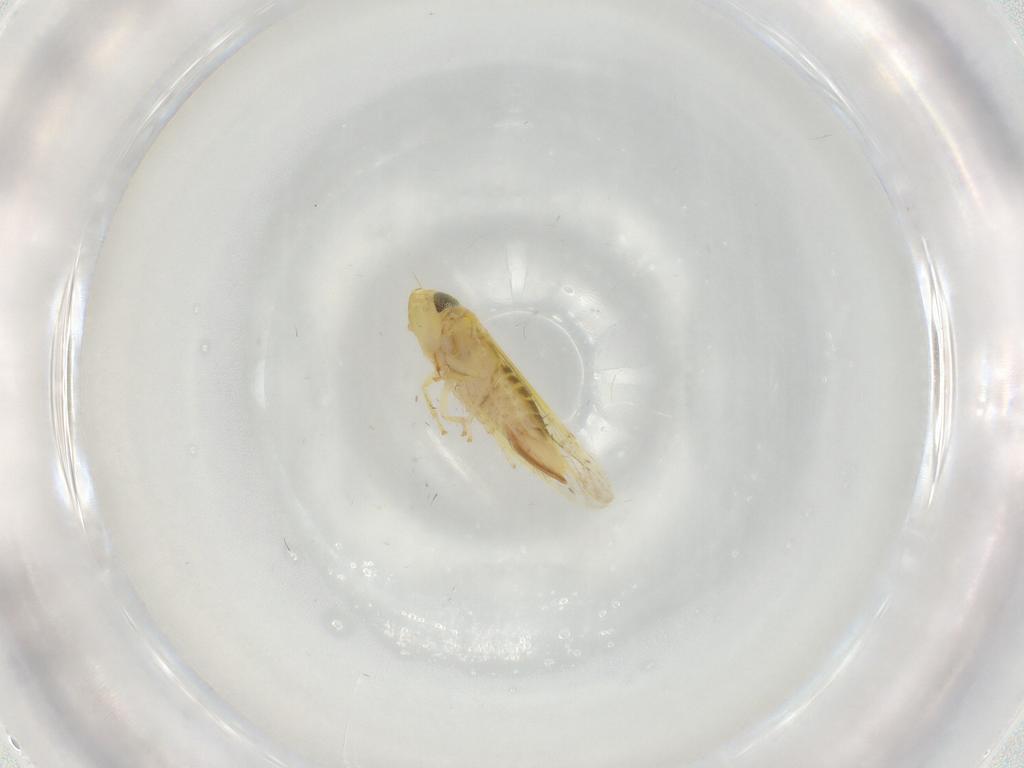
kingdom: Animalia
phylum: Arthropoda
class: Insecta
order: Hemiptera
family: Cicadellidae
